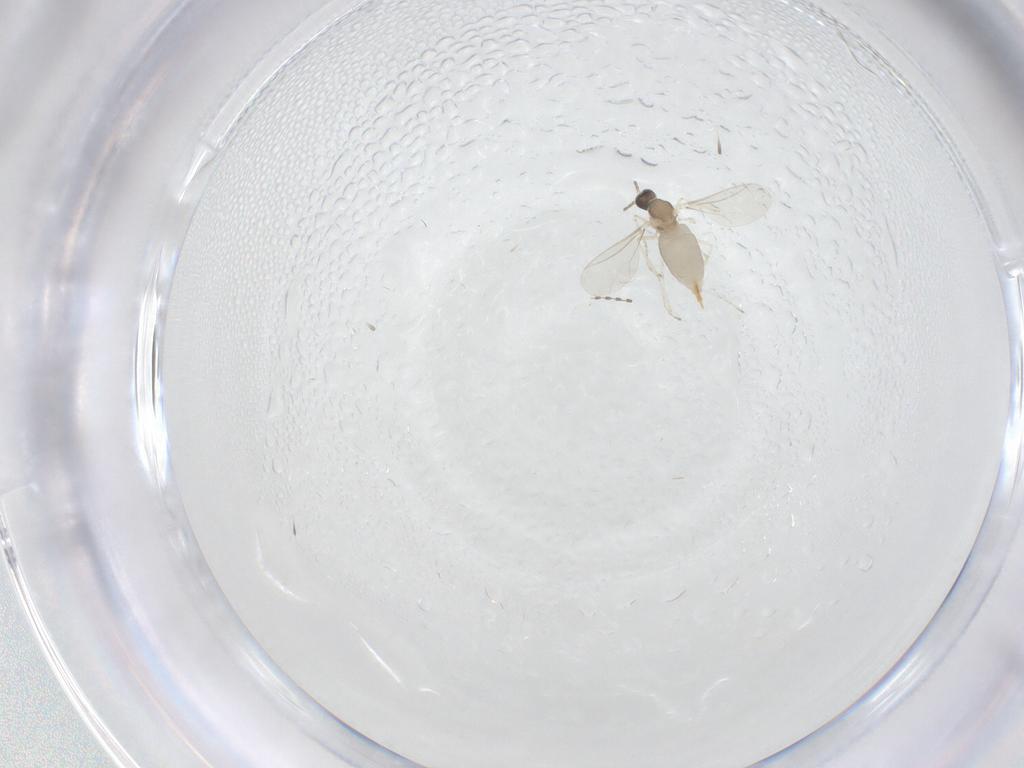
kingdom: Animalia
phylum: Arthropoda
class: Insecta
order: Diptera
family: Cecidomyiidae
